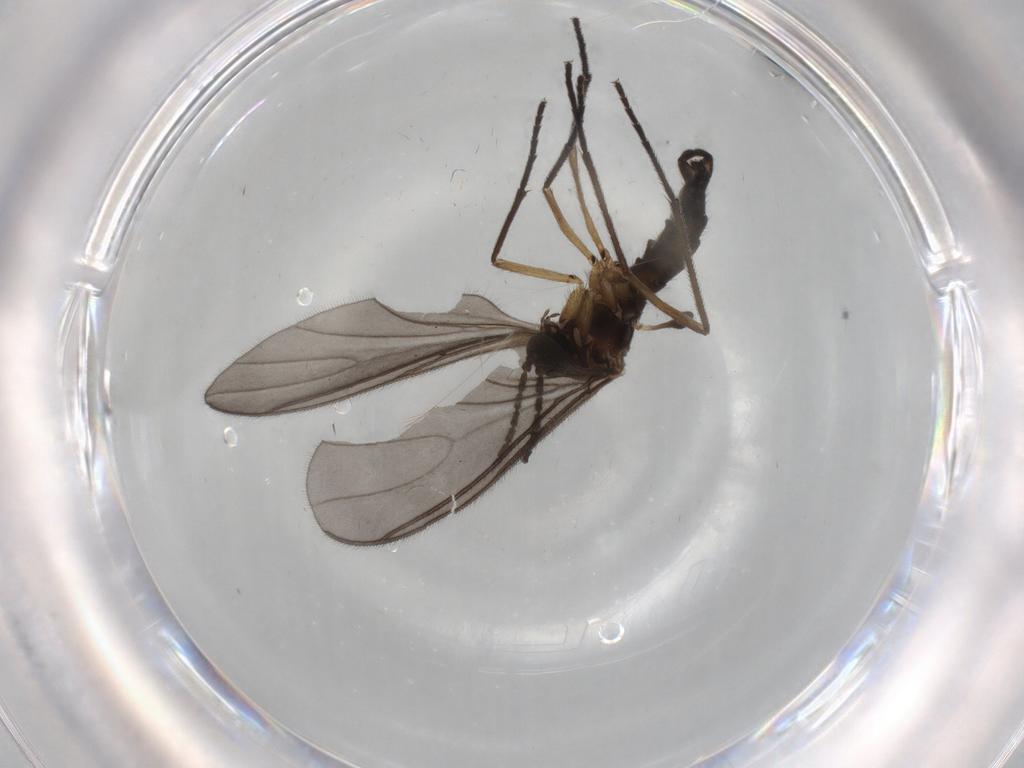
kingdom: Animalia
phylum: Arthropoda
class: Insecta
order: Diptera
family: Sciaridae
